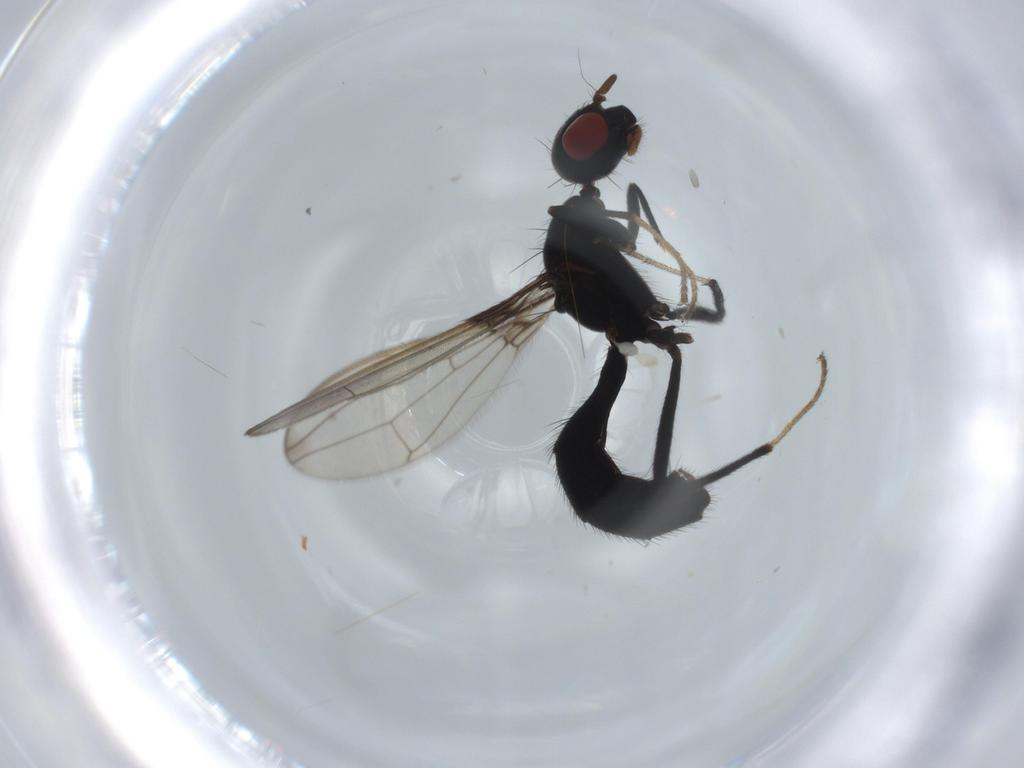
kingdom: Animalia
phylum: Arthropoda
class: Insecta
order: Diptera
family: Richardiidae
